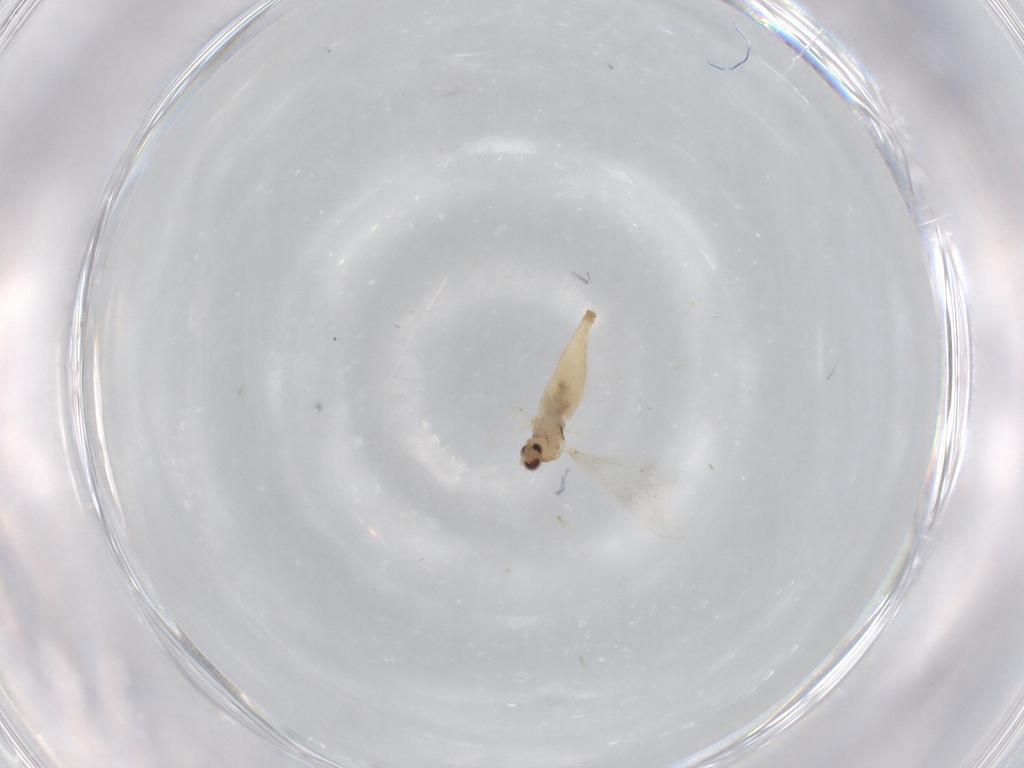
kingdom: Animalia
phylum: Arthropoda
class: Insecta
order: Diptera
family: Cecidomyiidae
